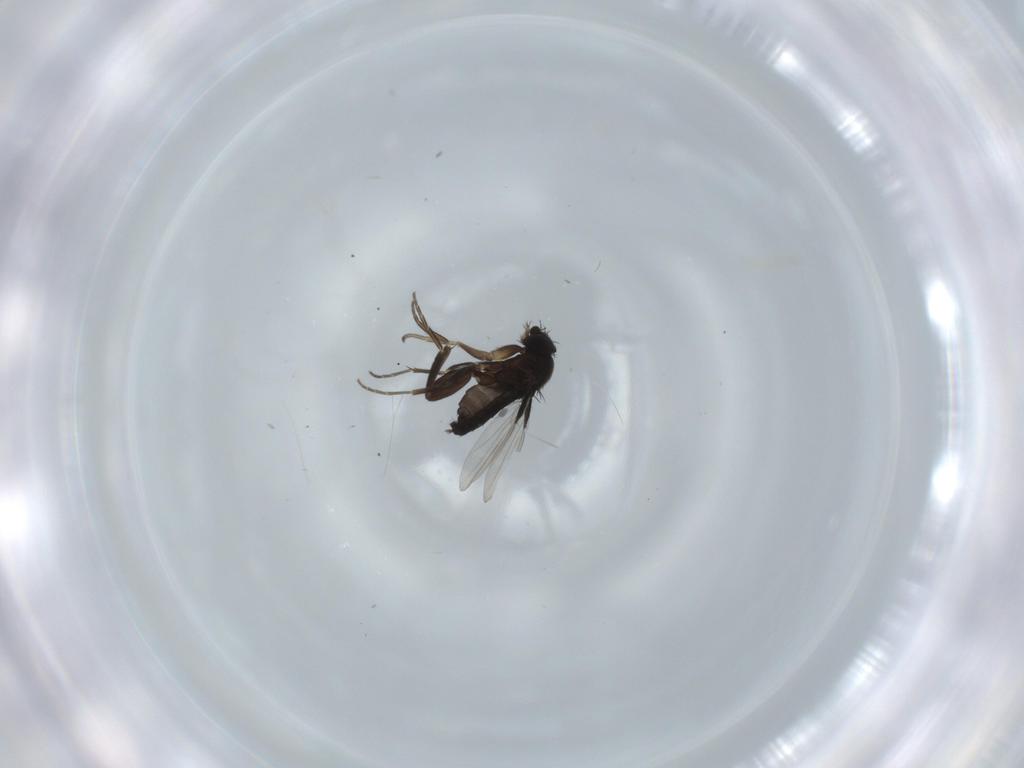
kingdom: Animalia
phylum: Arthropoda
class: Insecta
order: Diptera
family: Phoridae
